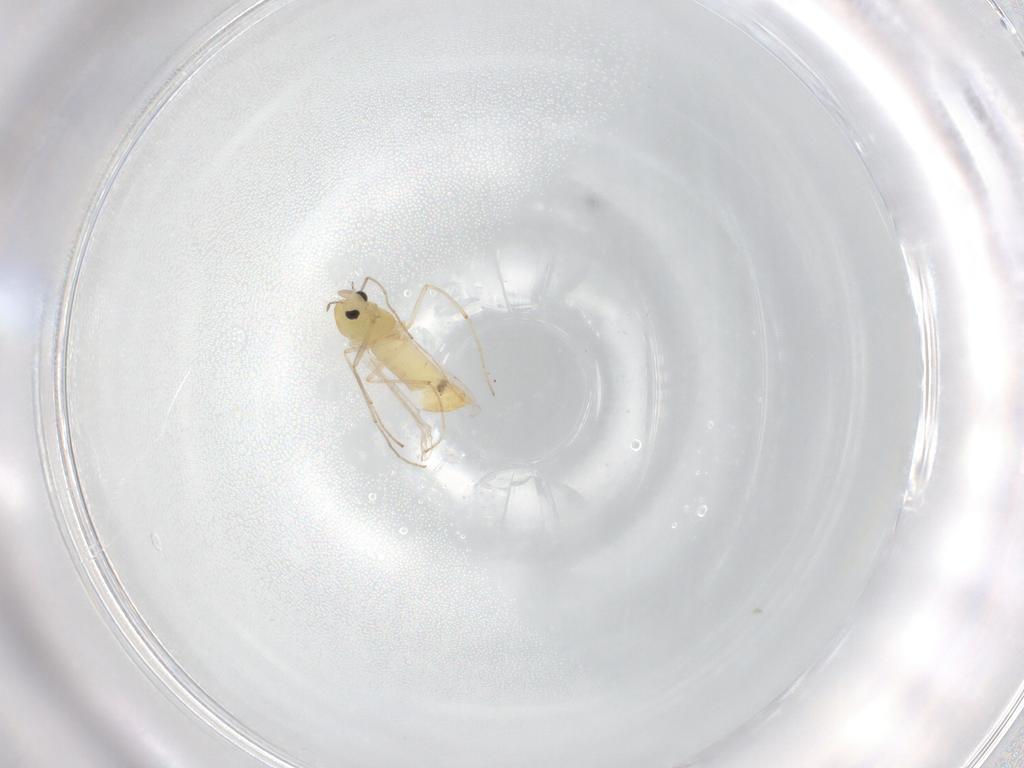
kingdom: Animalia
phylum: Arthropoda
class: Insecta
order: Diptera
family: Chironomidae
